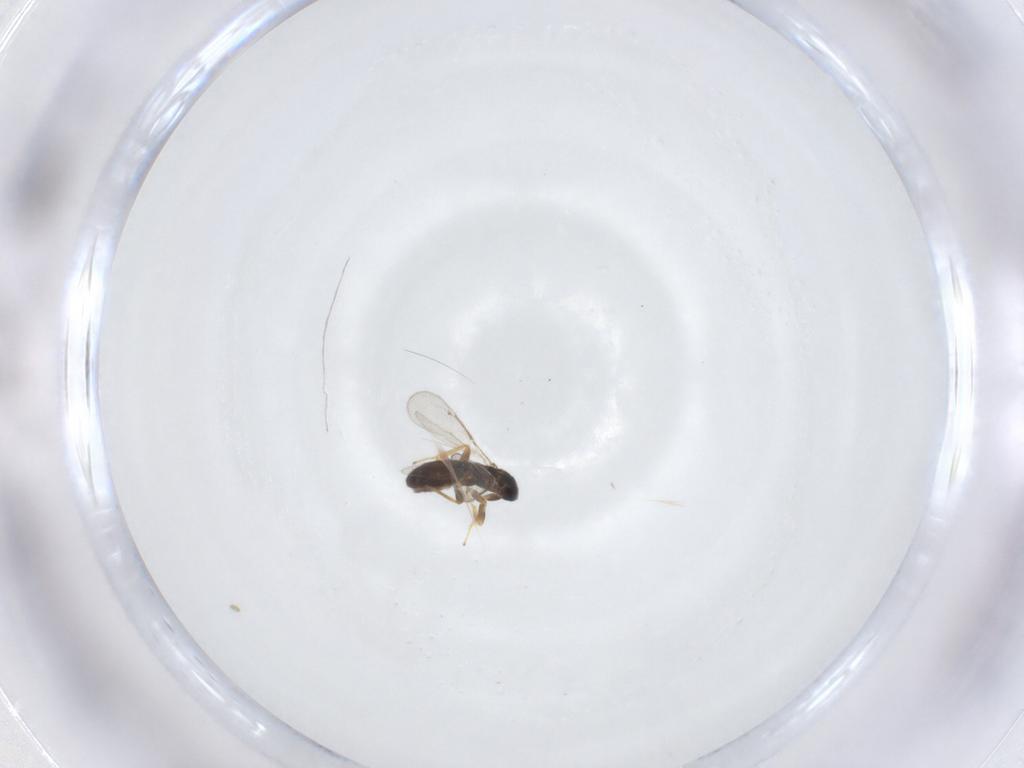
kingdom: Animalia
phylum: Arthropoda
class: Insecta
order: Hymenoptera
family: Eulophidae
